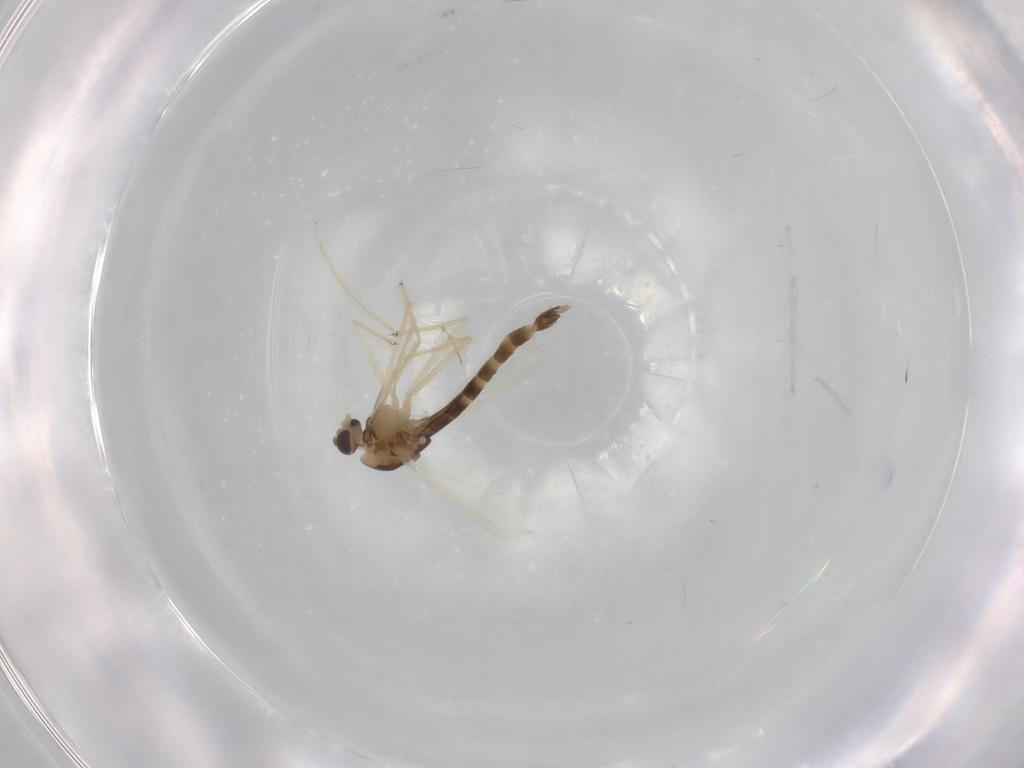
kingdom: Animalia
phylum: Arthropoda
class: Insecta
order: Diptera
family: Chironomidae
